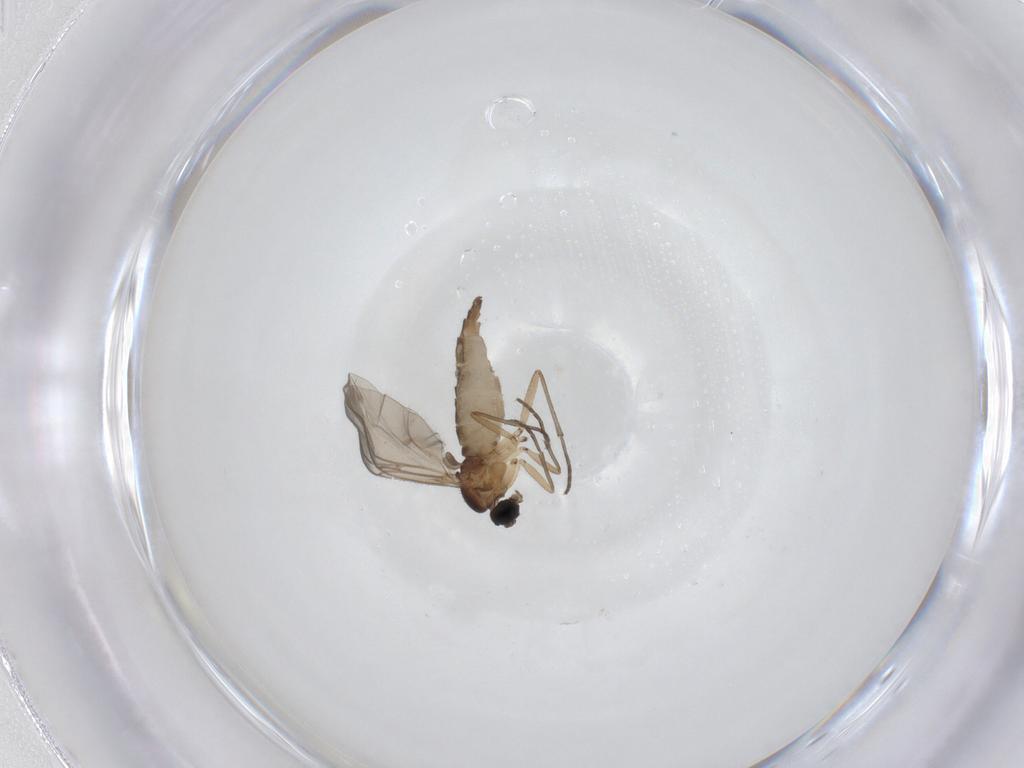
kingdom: Animalia
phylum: Arthropoda
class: Insecta
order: Diptera
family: Sciaridae
